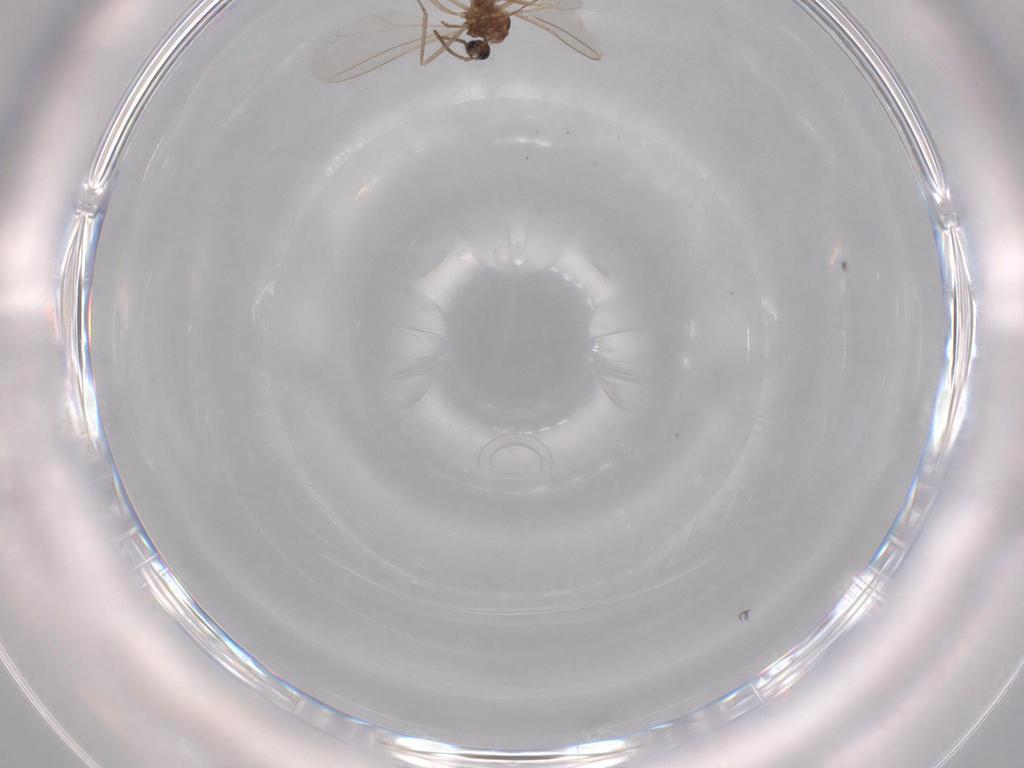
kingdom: Animalia
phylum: Arthropoda
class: Insecta
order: Diptera
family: Cecidomyiidae
